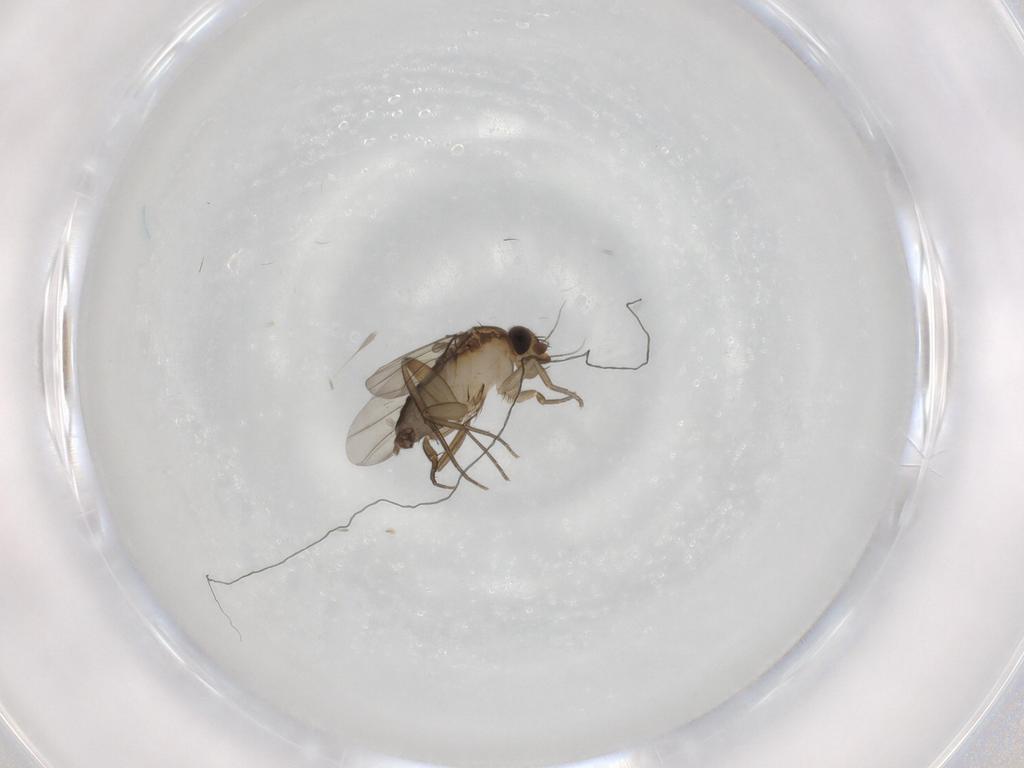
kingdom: Animalia
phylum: Arthropoda
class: Insecta
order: Diptera
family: Phoridae
